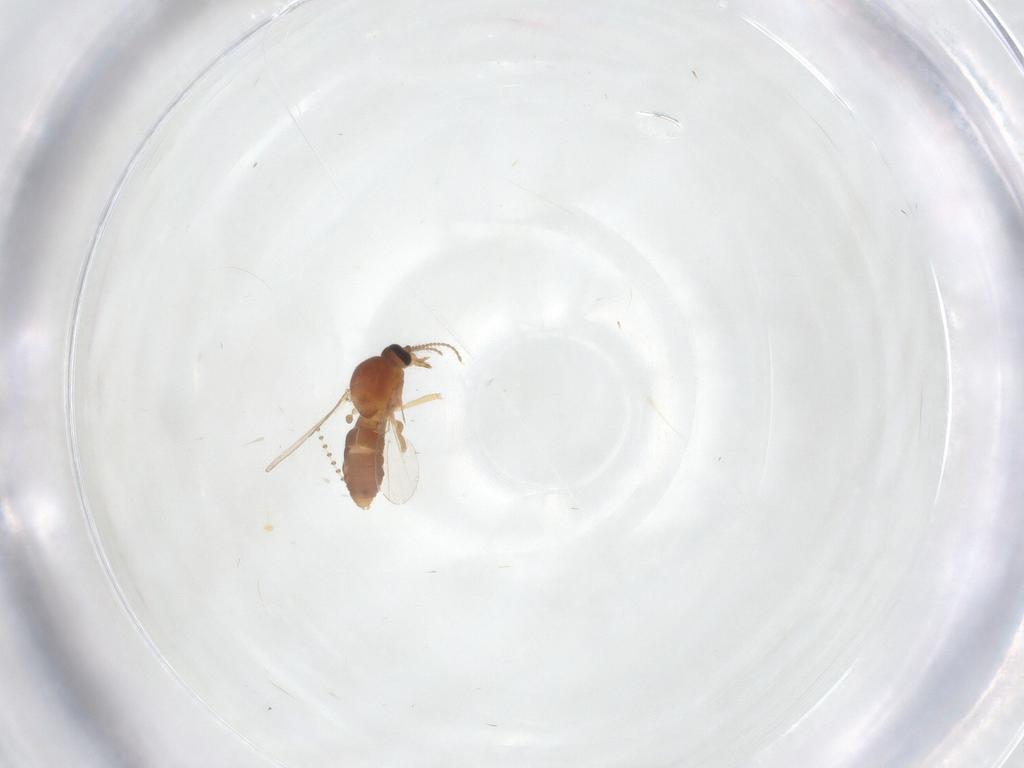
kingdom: Animalia
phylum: Arthropoda
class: Insecta
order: Diptera
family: Ceratopogonidae
